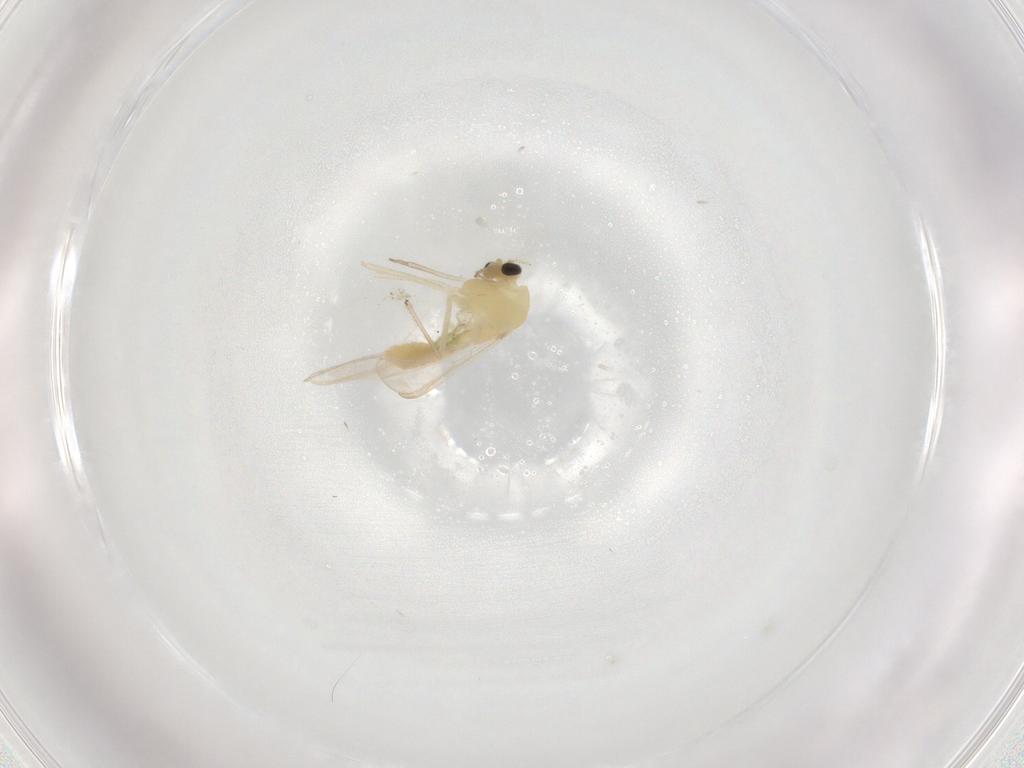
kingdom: Animalia
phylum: Arthropoda
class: Insecta
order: Diptera
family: Chironomidae
